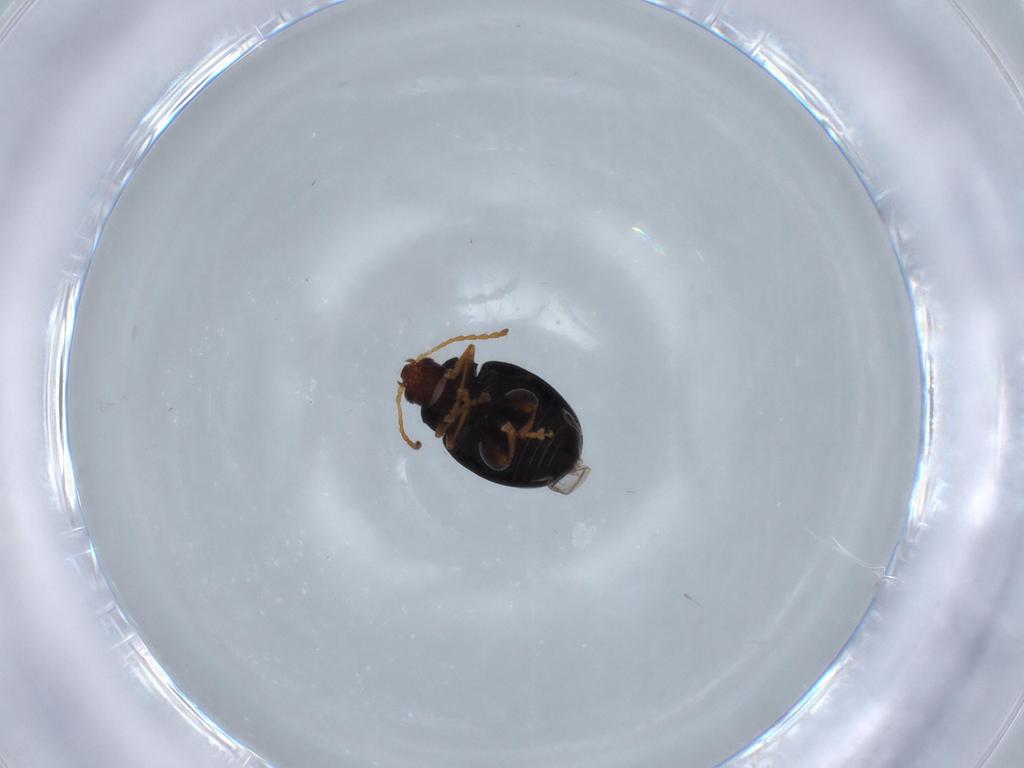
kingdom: Animalia
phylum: Arthropoda
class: Insecta
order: Coleoptera
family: Chrysomelidae
